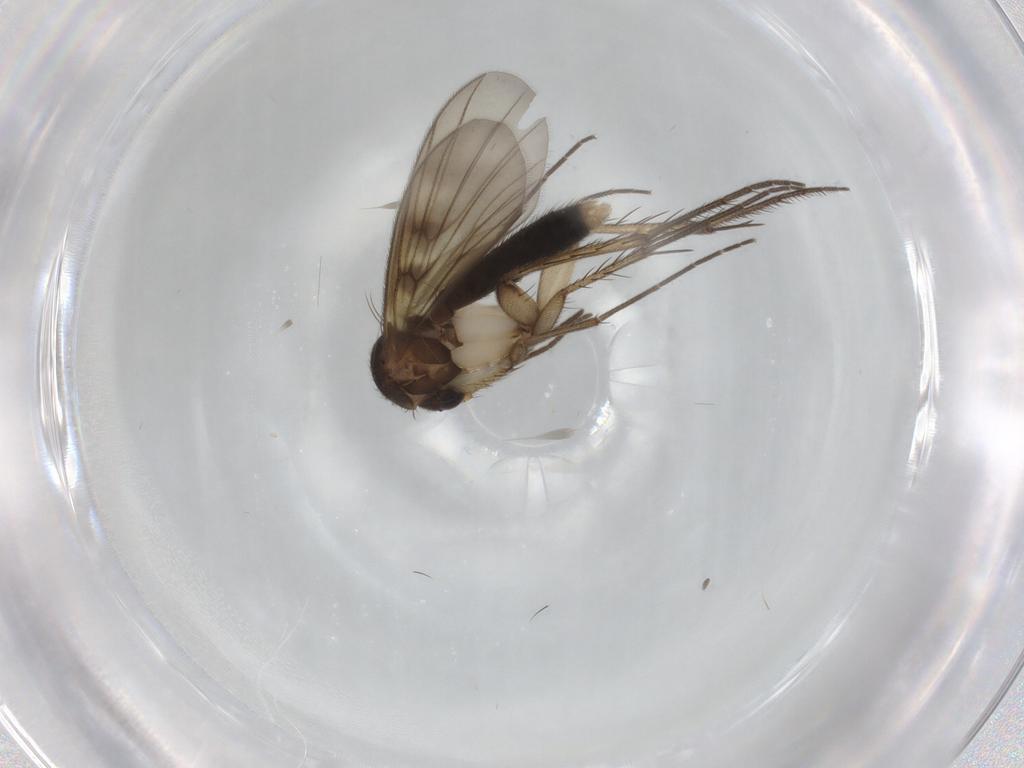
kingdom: Animalia
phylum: Arthropoda
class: Insecta
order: Diptera
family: Mycetophilidae
